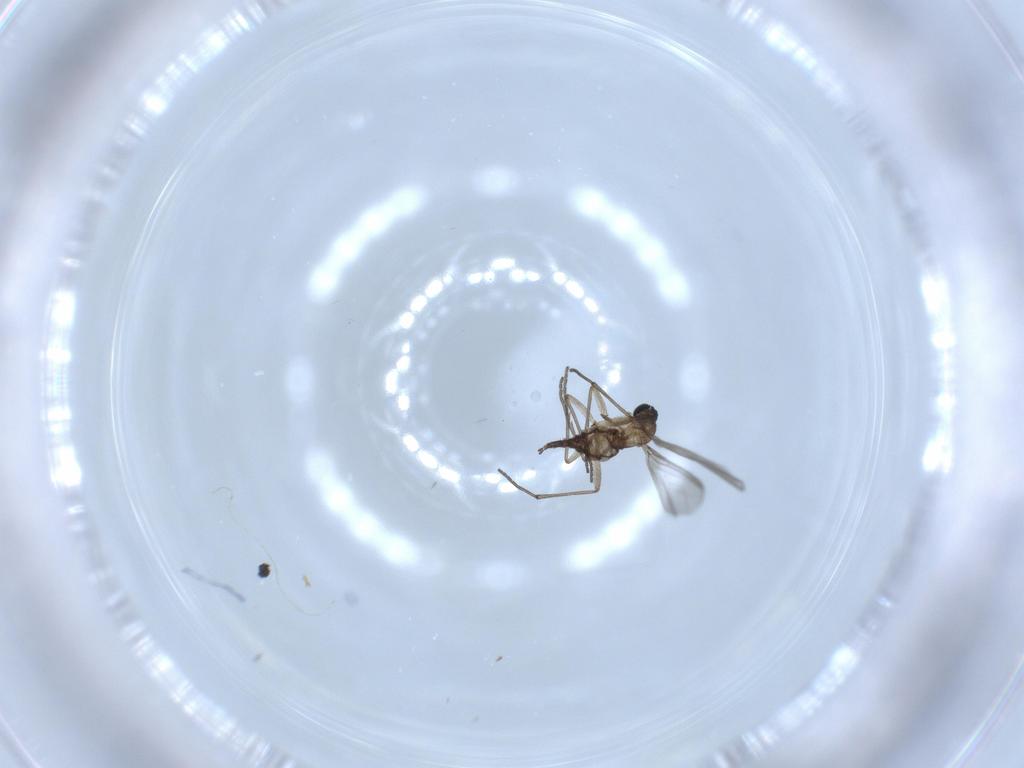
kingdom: Animalia
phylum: Arthropoda
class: Insecta
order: Diptera
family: Sciaridae
